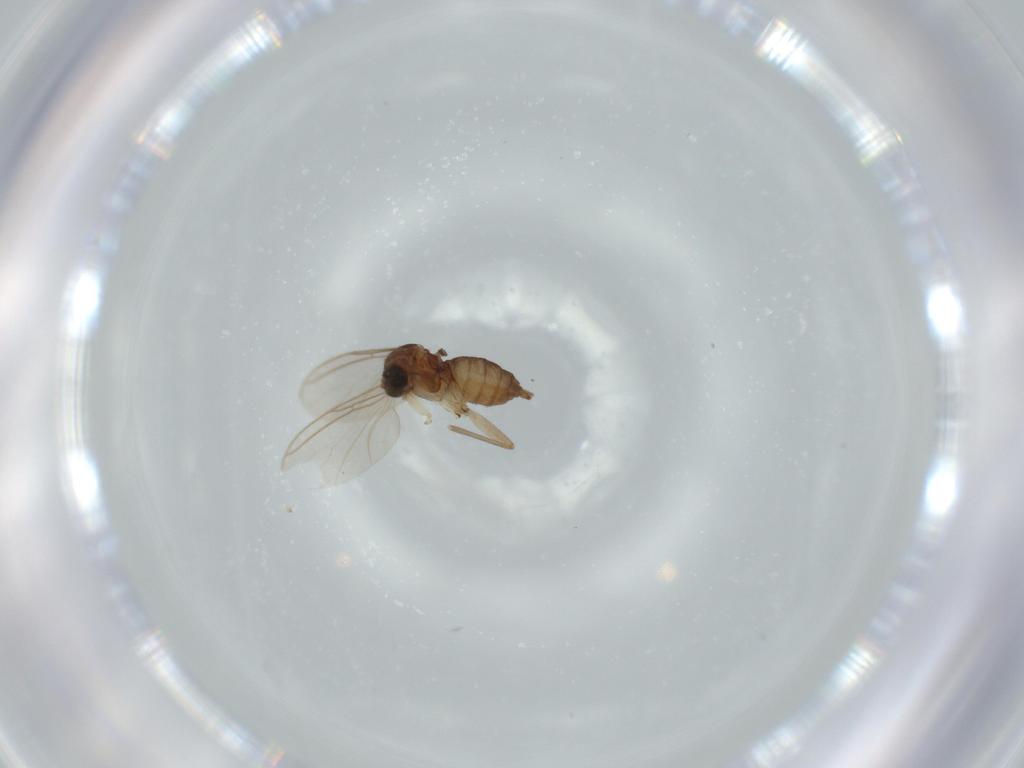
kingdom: Animalia
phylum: Arthropoda
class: Insecta
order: Diptera
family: Sciaridae
